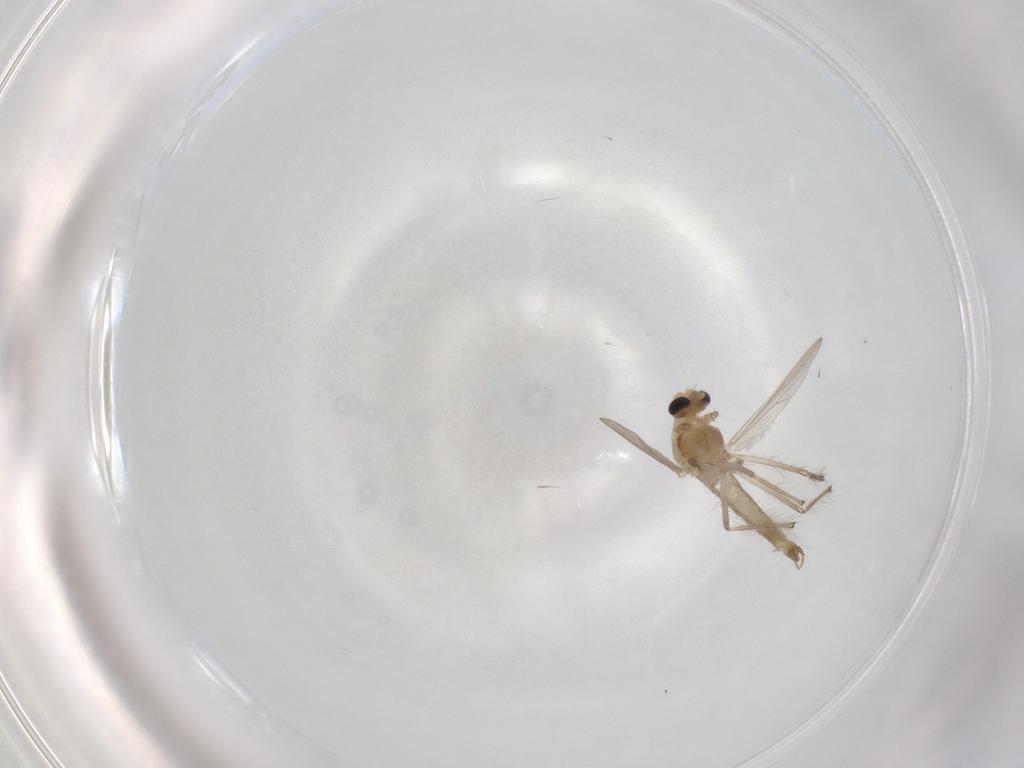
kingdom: Animalia
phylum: Arthropoda
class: Insecta
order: Diptera
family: Chironomidae
